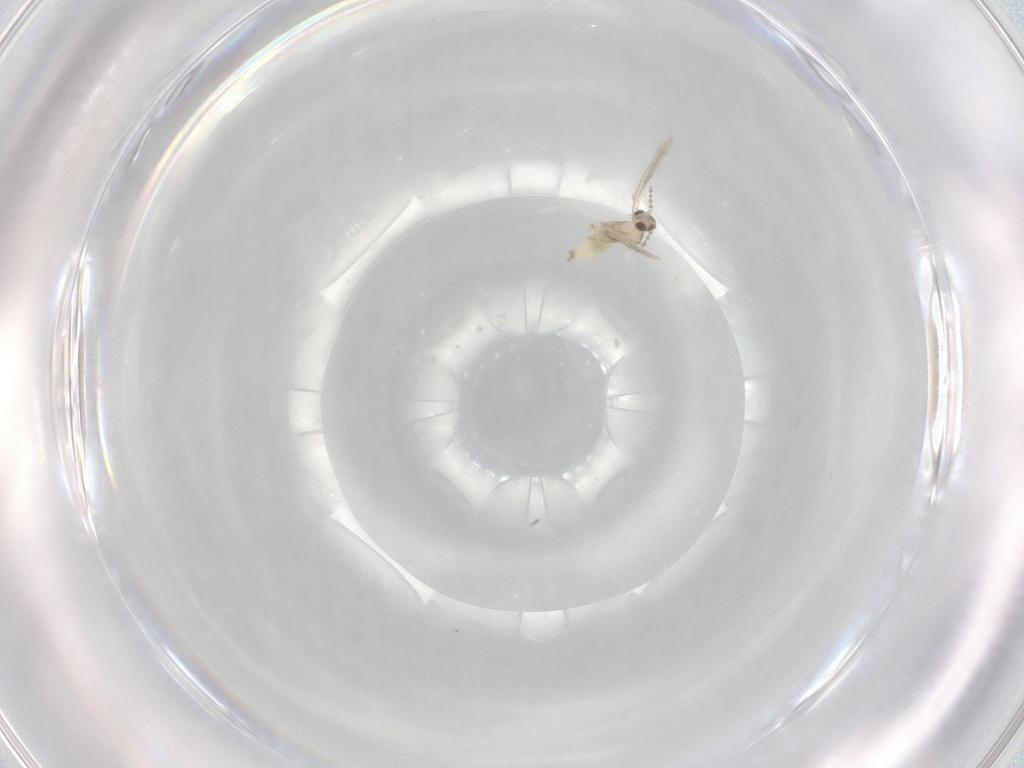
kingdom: Animalia
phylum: Arthropoda
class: Insecta
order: Diptera
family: Cecidomyiidae
